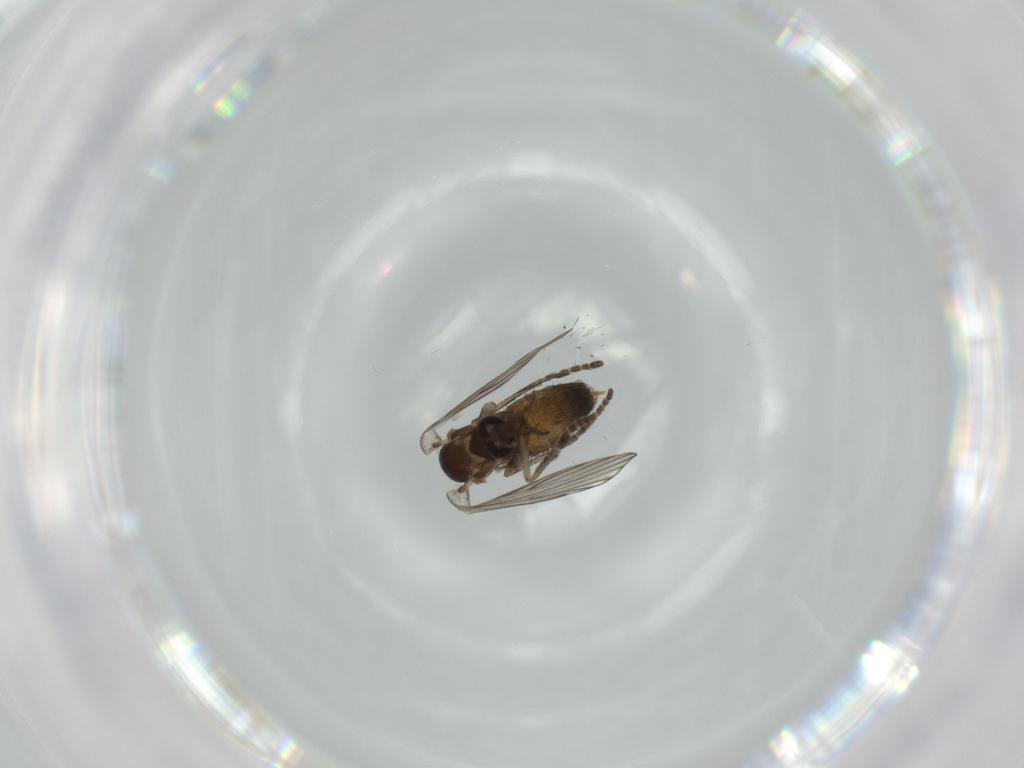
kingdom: Animalia
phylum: Arthropoda
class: Insecta
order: Diptera
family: Psychodidae
